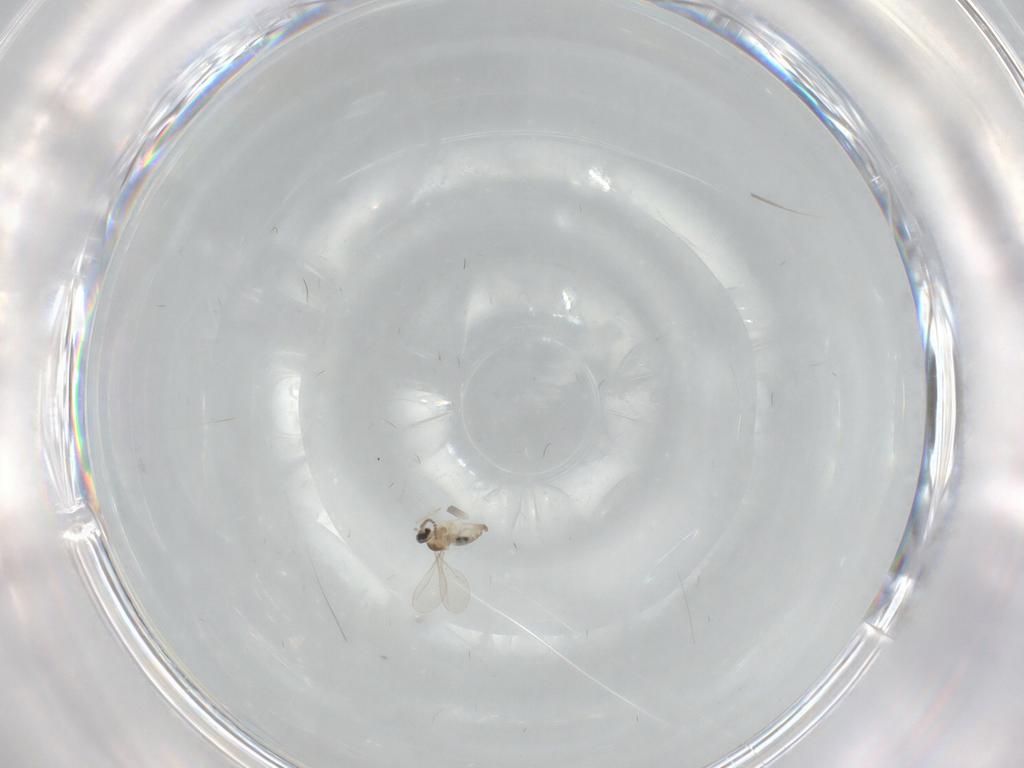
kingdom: Animalia
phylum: Arthropoda
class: Insecta
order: Diptera
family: Cecidomyiidae
